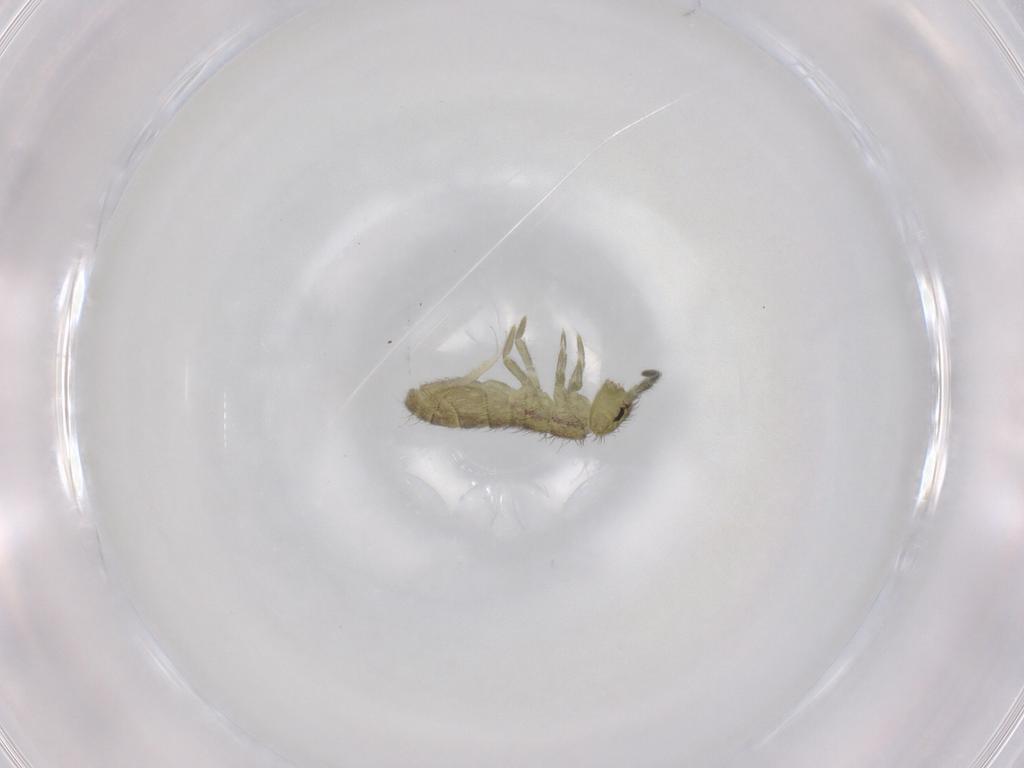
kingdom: Animalia
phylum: Arthropoda
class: Collembola
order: Entomobryomorpha
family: Isotomidae
